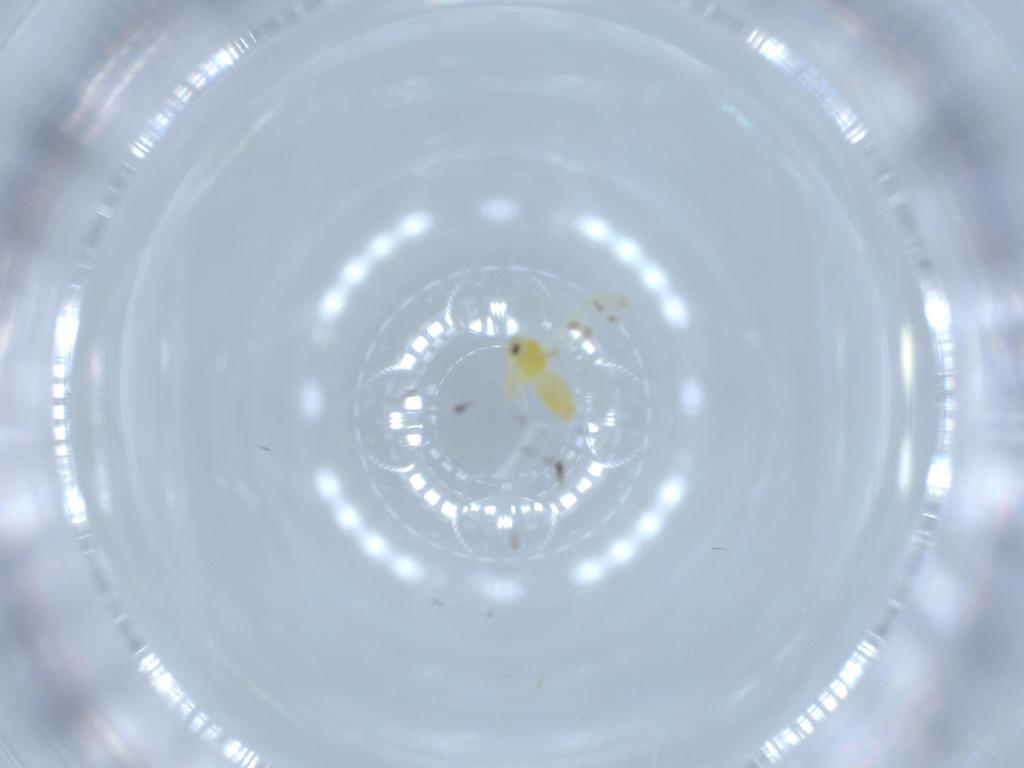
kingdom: Animalia
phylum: Arthropoda
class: Insecta
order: Hemiptera
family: Aleyrodidae
